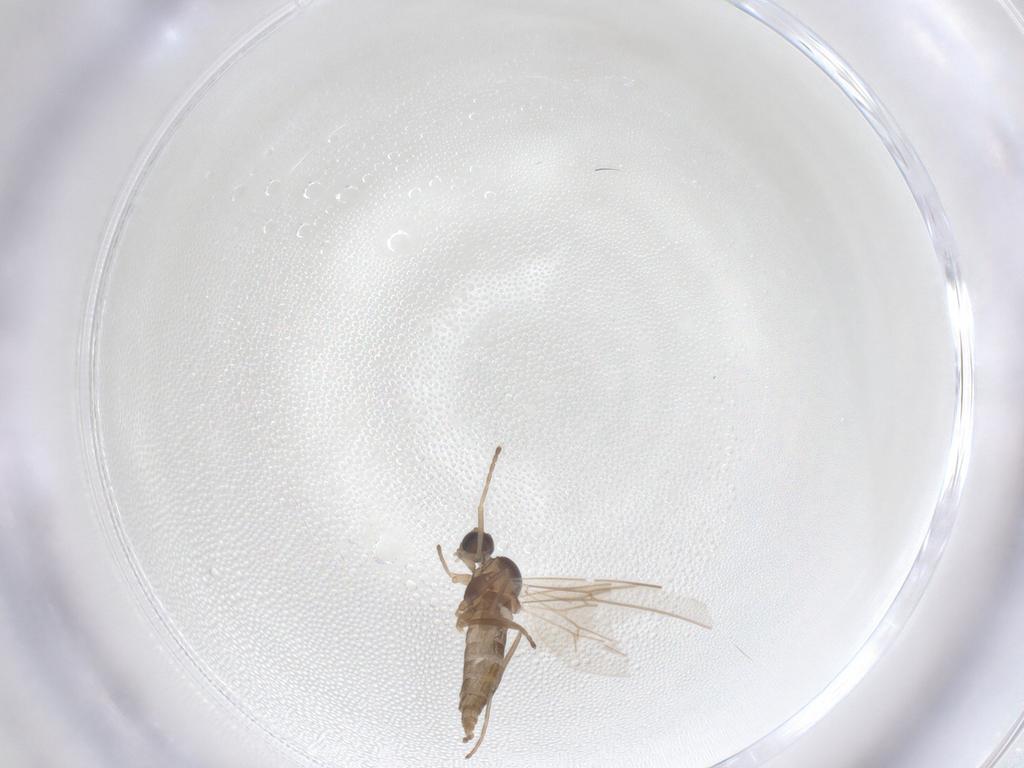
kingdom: Animalia
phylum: Arthropoda
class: Insecta
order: Diptera
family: Cecidomyiidae
